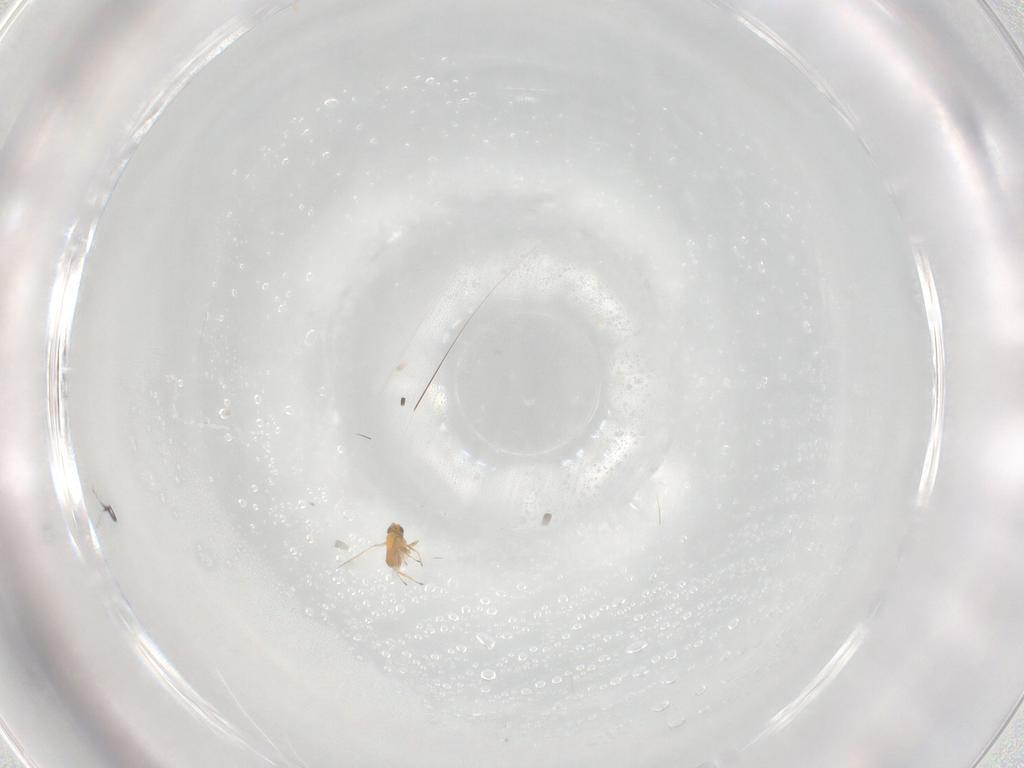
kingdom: Animalia
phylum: Arthropoda
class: Insecta
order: Hymenoptera
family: Trichogrammatidae
